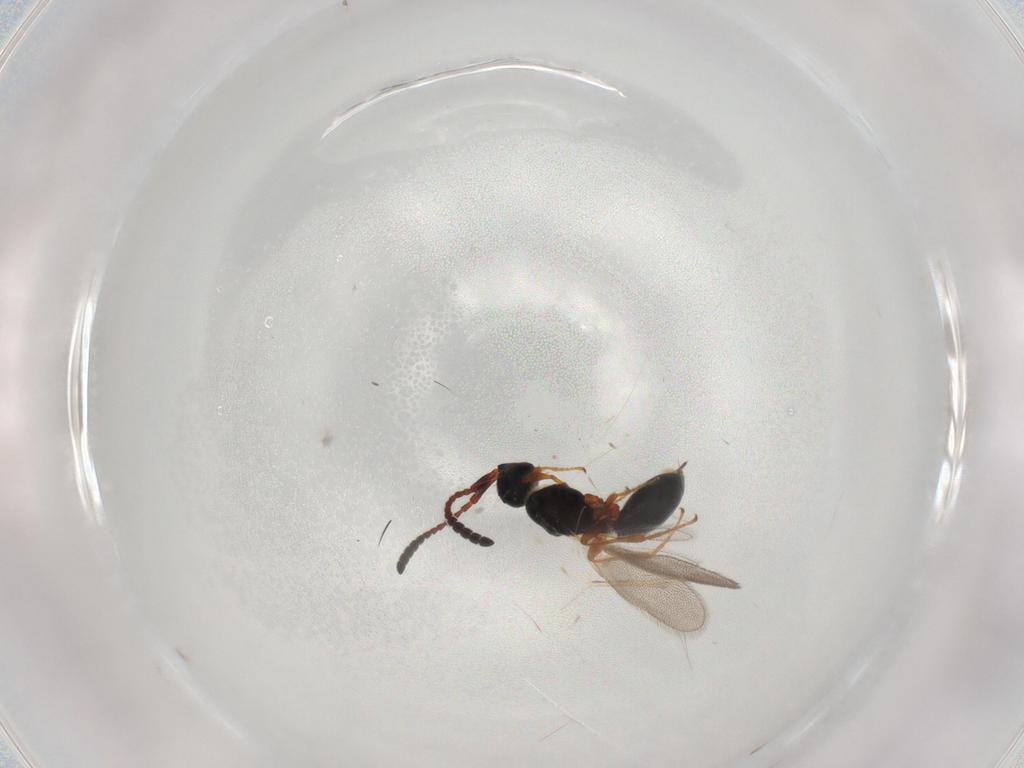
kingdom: Animalia
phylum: Arthropoda
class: Insecta
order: Hymenoptera
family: Diapriidae
